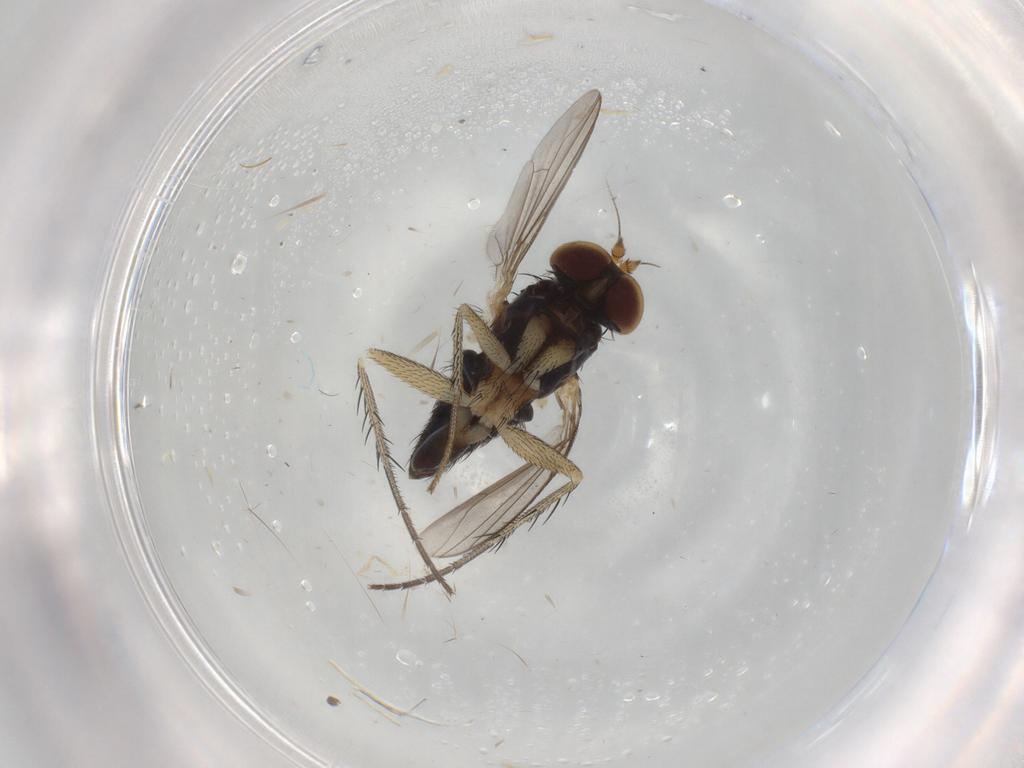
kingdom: Animalia
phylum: Arthropoda
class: Insecta
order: Diptera
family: Dolichopodidae
